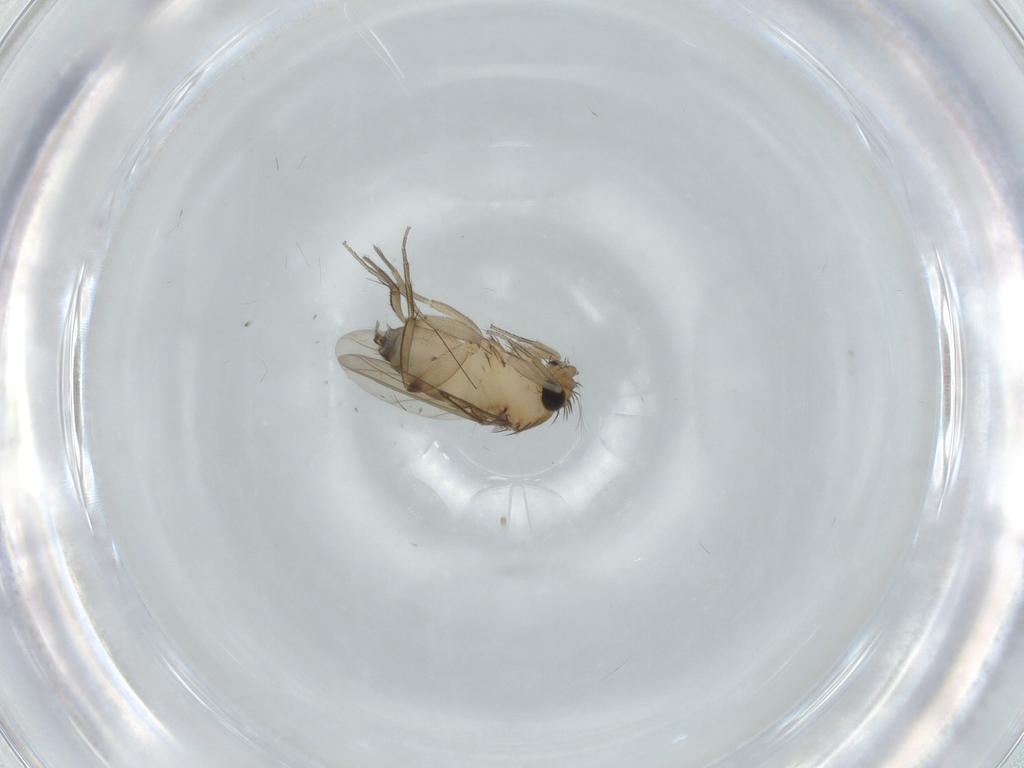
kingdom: Animalia
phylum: Arthropoda
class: Insecta
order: Diptera
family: Phoridae
